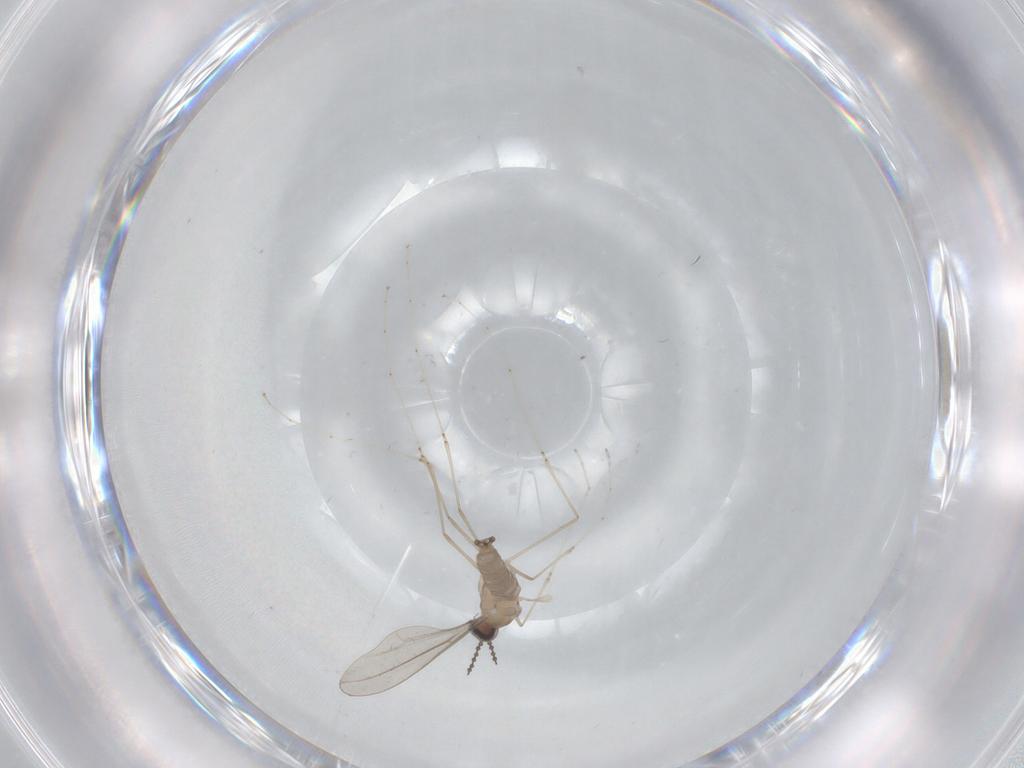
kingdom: Animalia
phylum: Arthropoda
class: Insecta
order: Diptera
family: Cecidomyiidae
